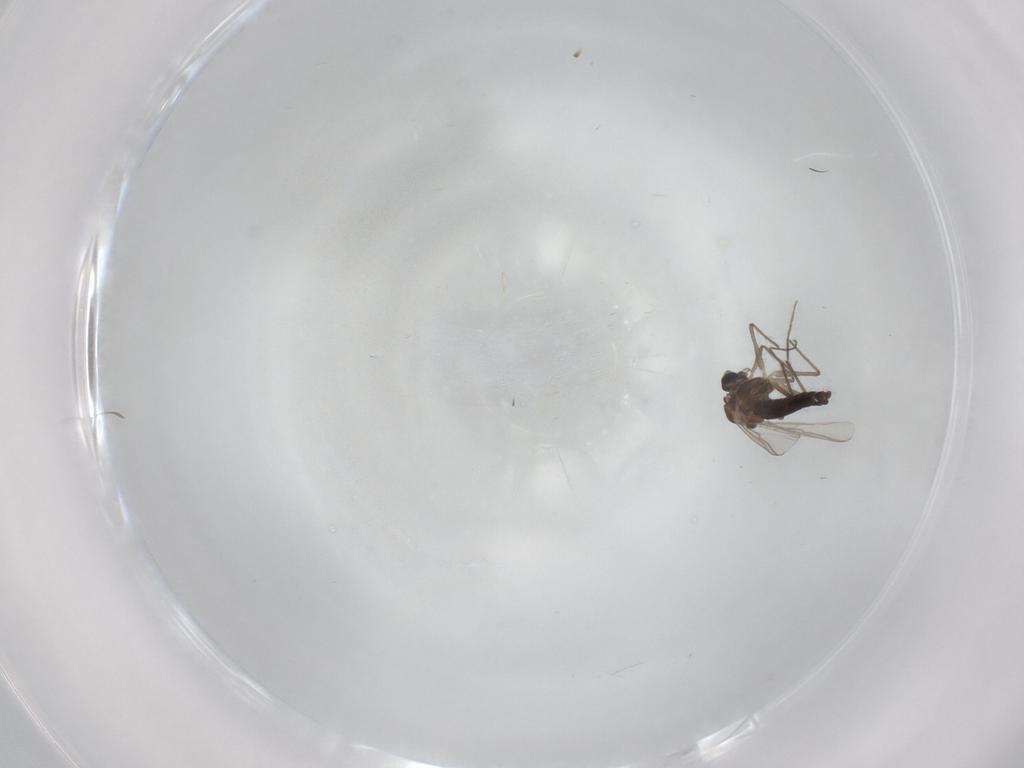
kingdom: Animalia
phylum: Arthropoda
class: Insecta
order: Diptera
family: Chironomidae
